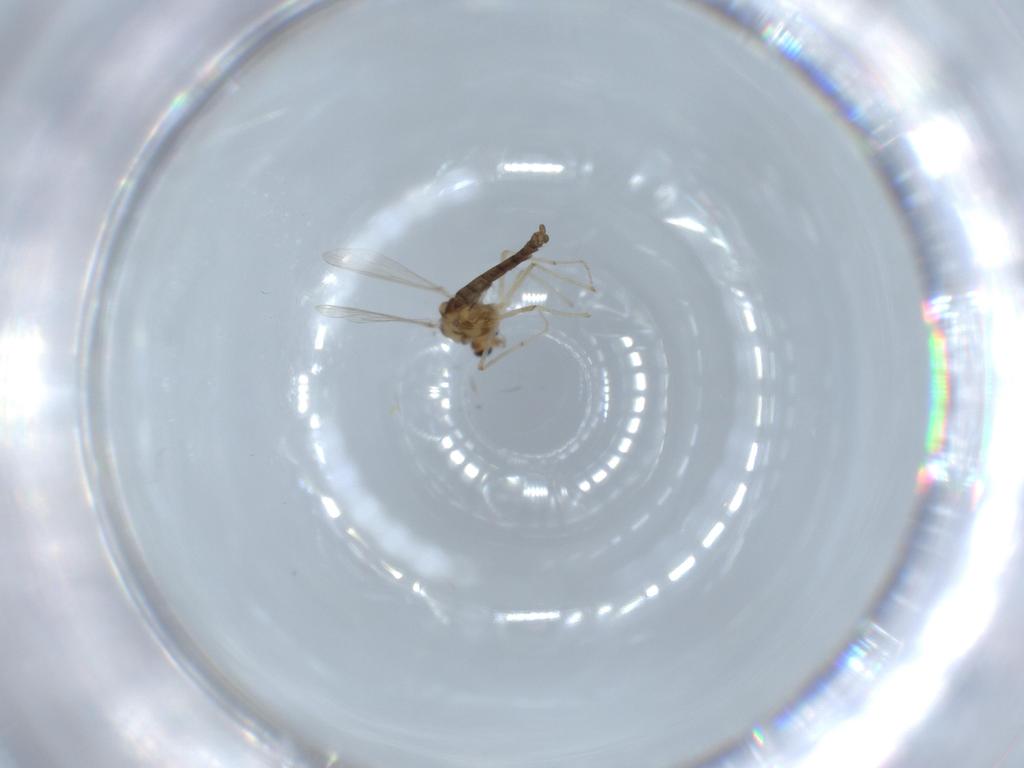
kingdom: Animalia
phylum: Arthropoda
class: Insecta
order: Diptera
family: Chironomidae
